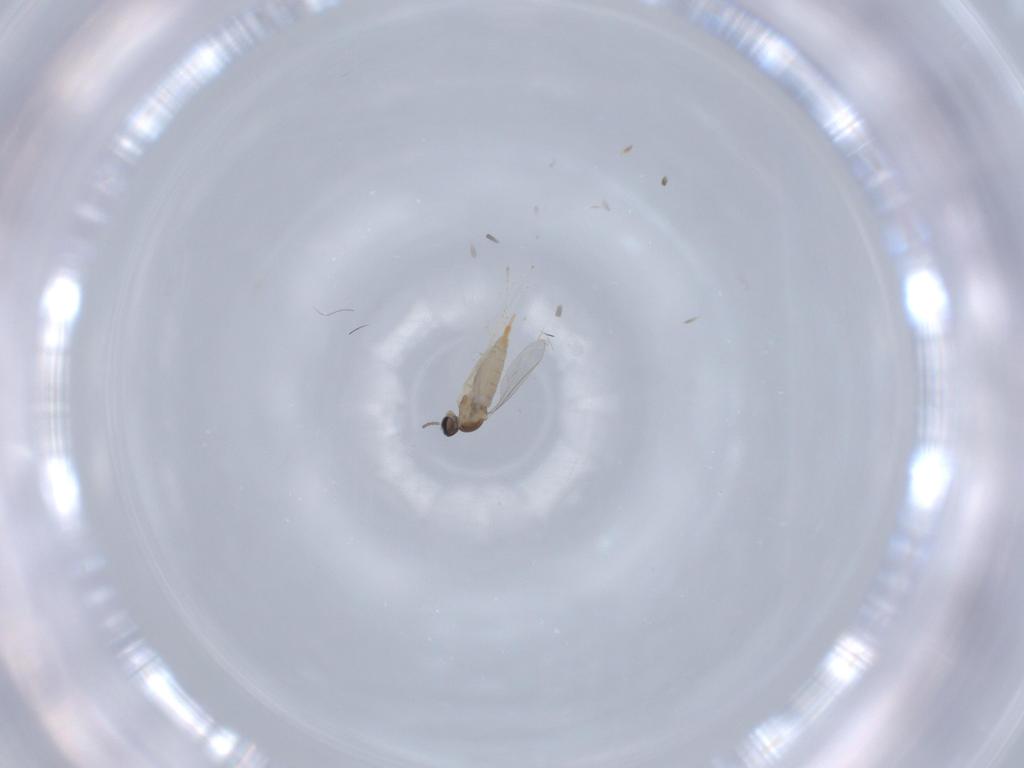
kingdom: Animalia
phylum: Arthropoda
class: Insecta
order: Diptera
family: Cecidomyiidae
